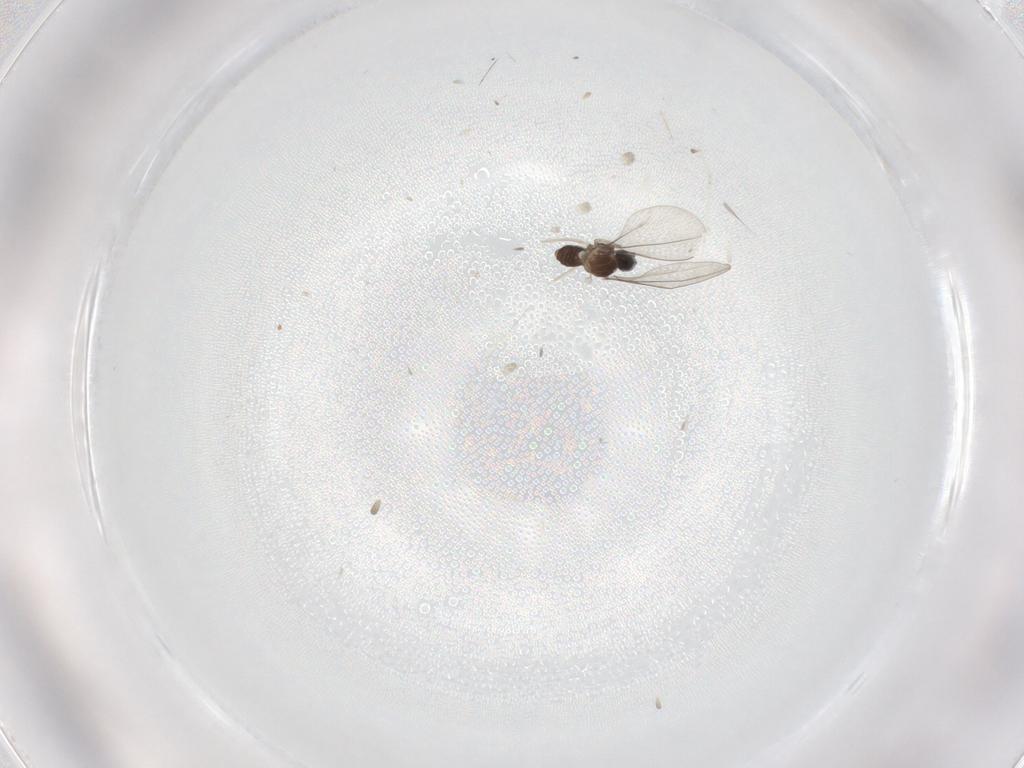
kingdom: Animalia
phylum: Arthropoda
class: Insecta
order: Diptera
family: Cecidomyiidae
